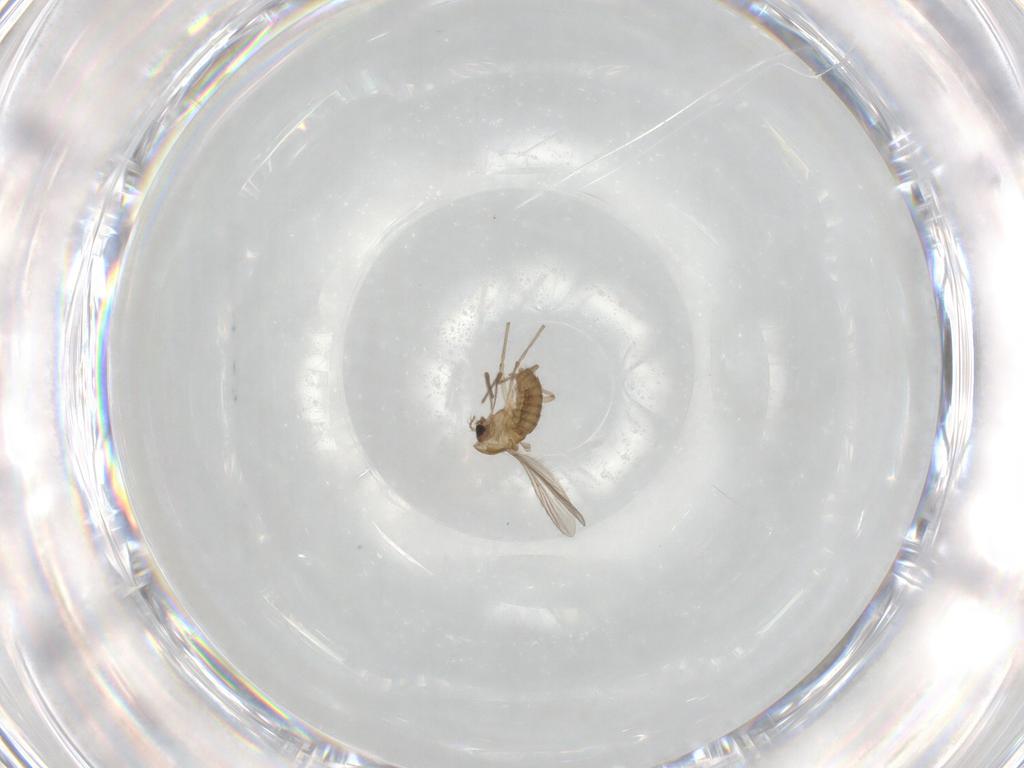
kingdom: Animalia
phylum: Arthropoda
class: Insecta
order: Diptera
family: Chironomidae
